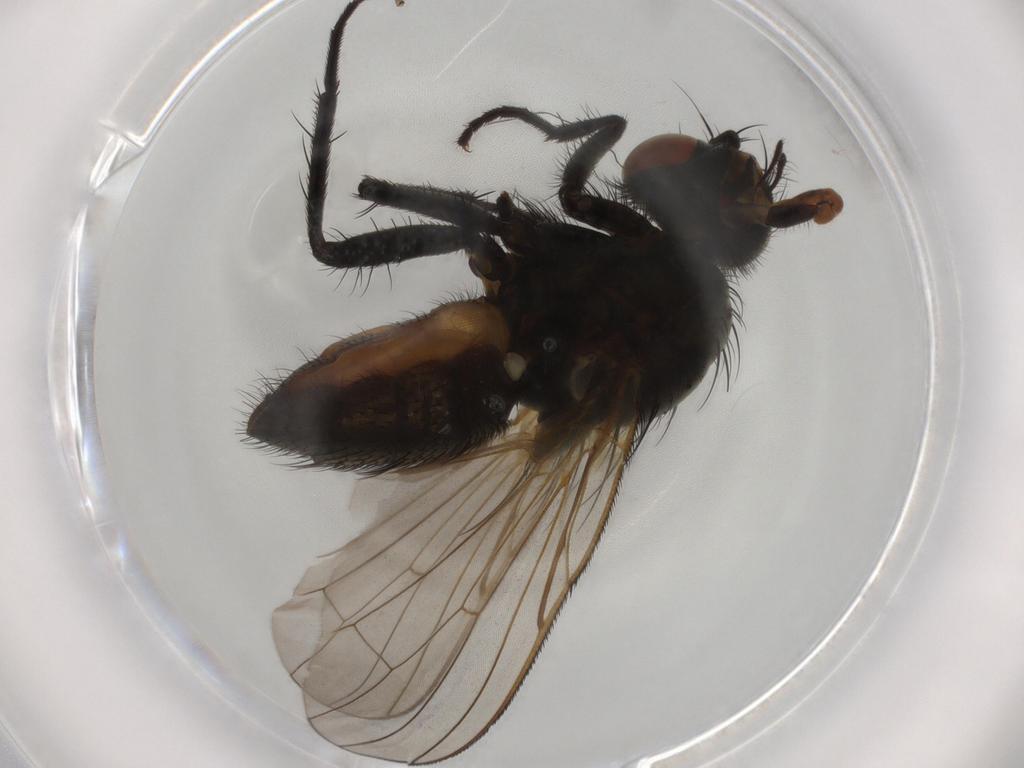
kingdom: Animalia
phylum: Arthropoda
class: Insecta
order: Diptera
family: Anthomyiidae
